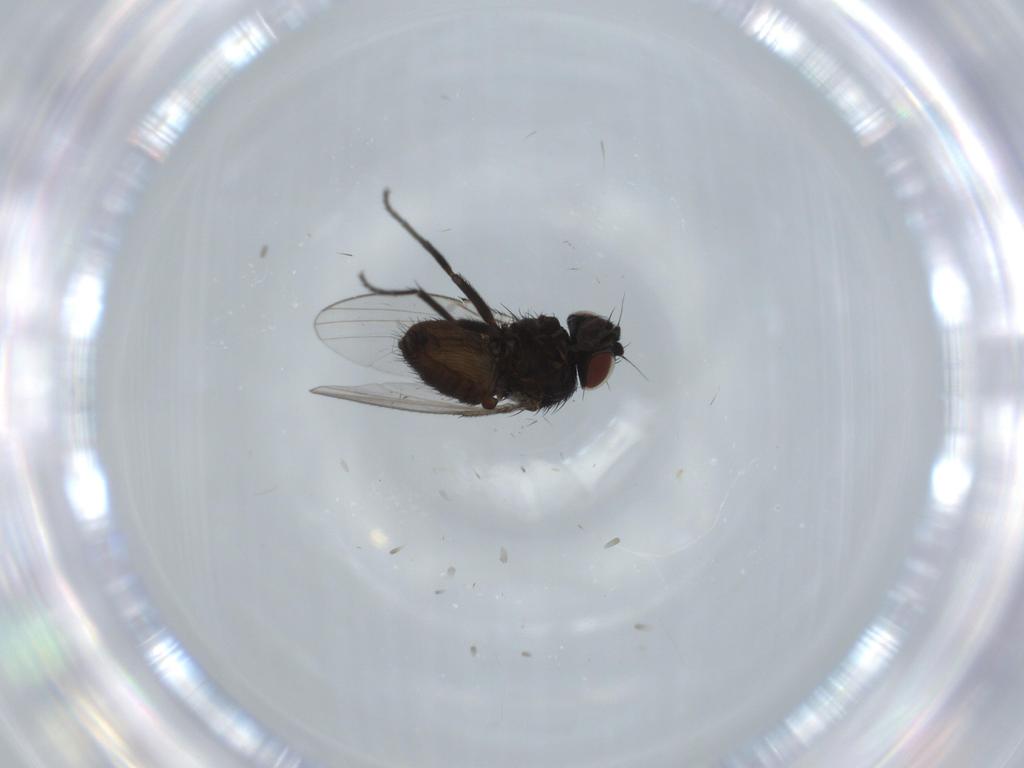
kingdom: Animalia
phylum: Arthropoda
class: Insecta
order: Diptera
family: Milichiidae
